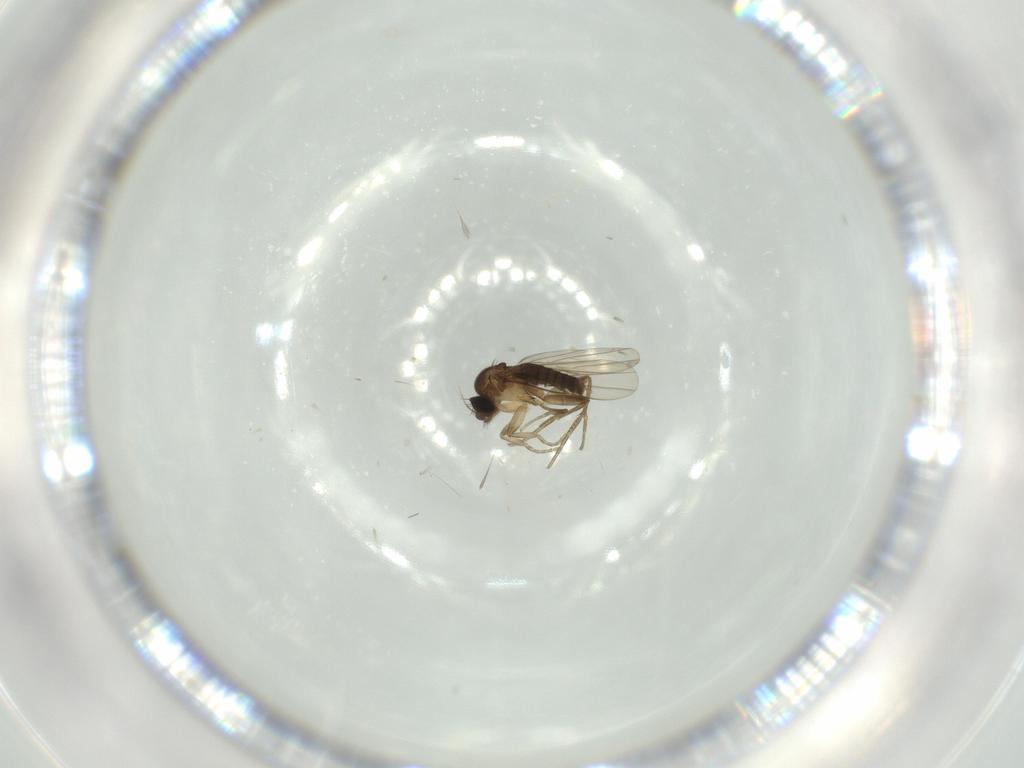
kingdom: Animalia
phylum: Arthropoda
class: Insecta
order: Diptera
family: Phoridae
